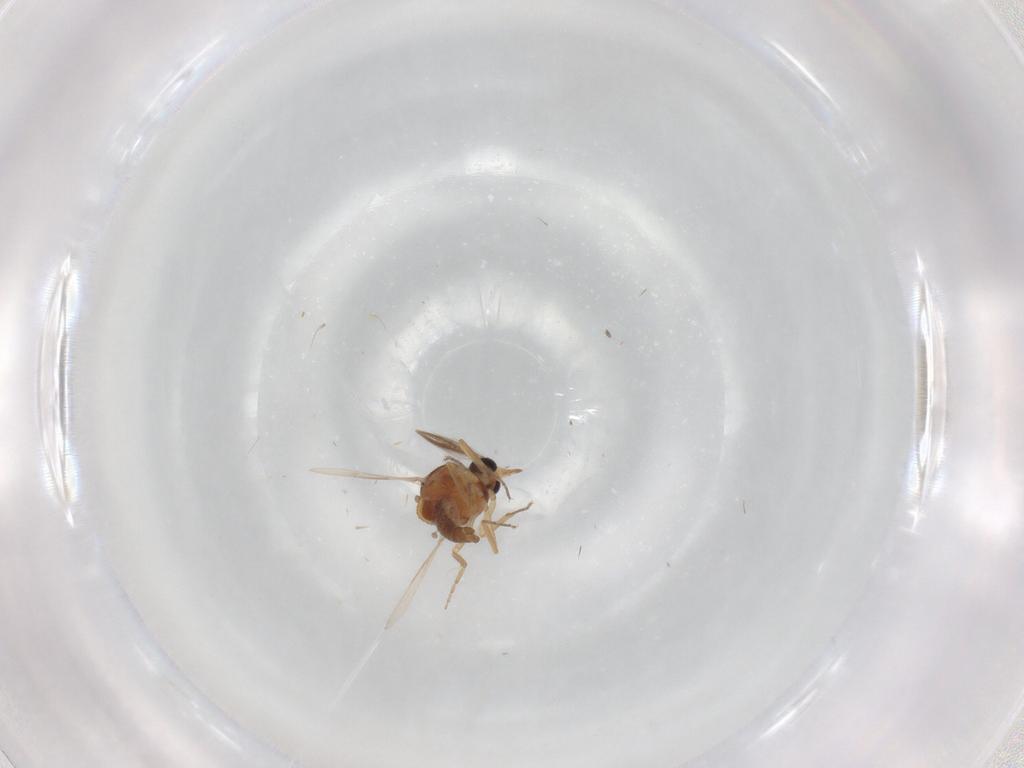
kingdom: Animalia
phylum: Arthropoda
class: Insecta
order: Diptera
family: Ceratopogonidae
